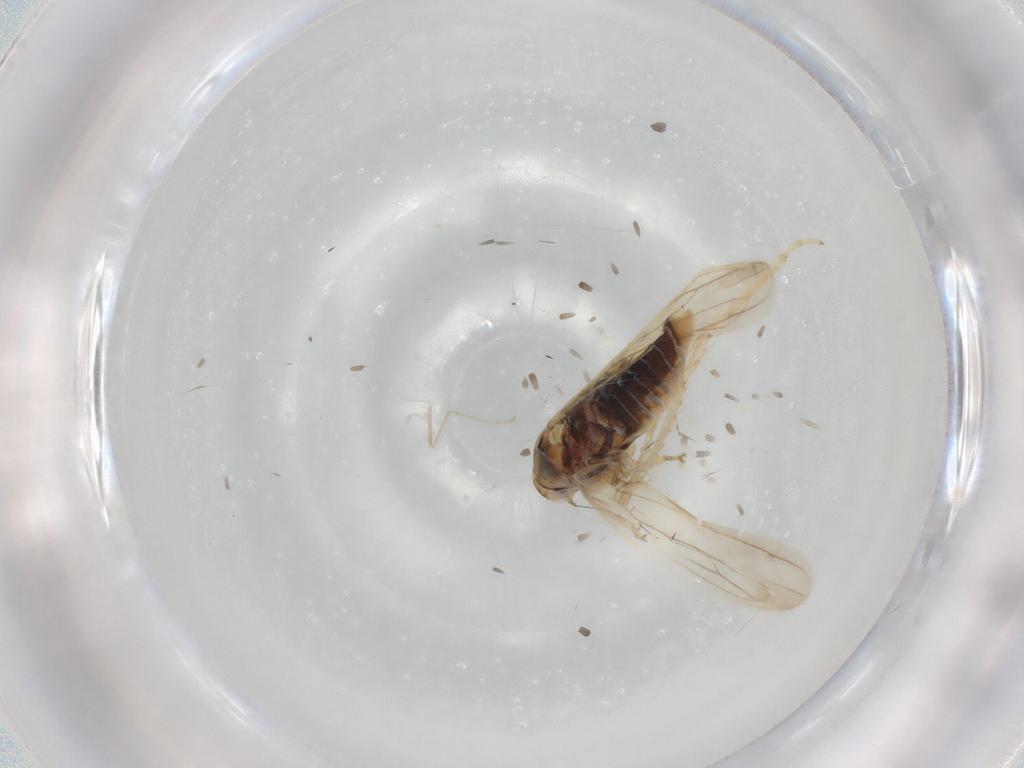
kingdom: Animalia
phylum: Arthropoda
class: Insecta
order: Hemiptera
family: Cicadellidae
